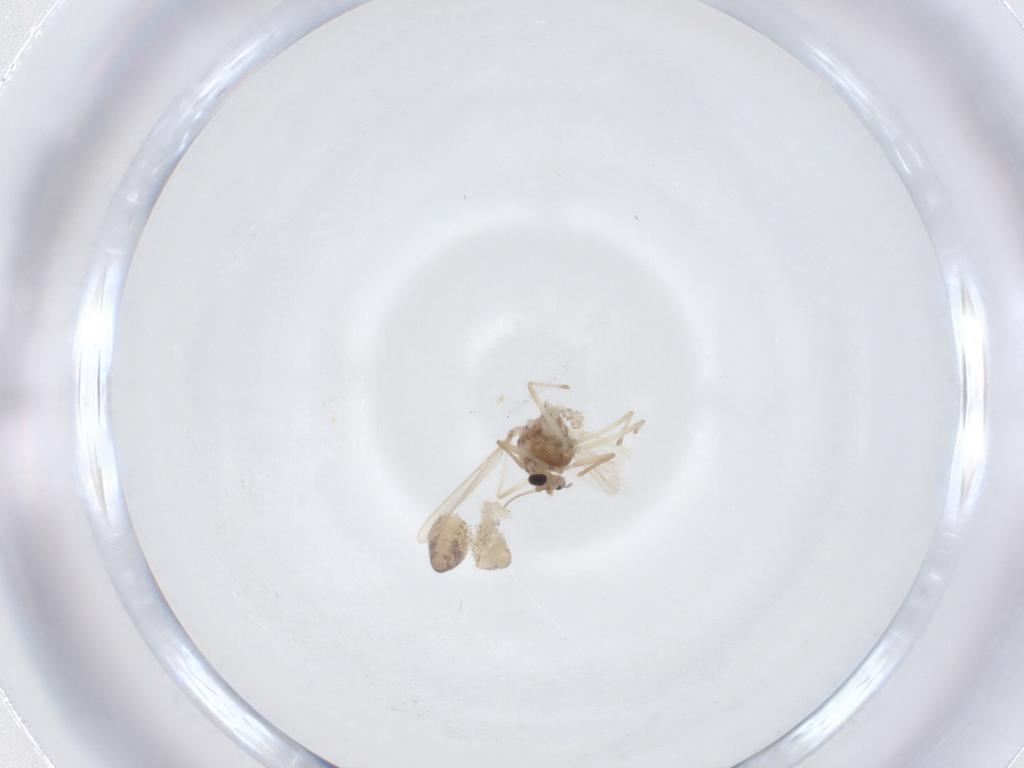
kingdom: Animalia
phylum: Arthropoda
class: Insecta
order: Diptera
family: Chironomidae
